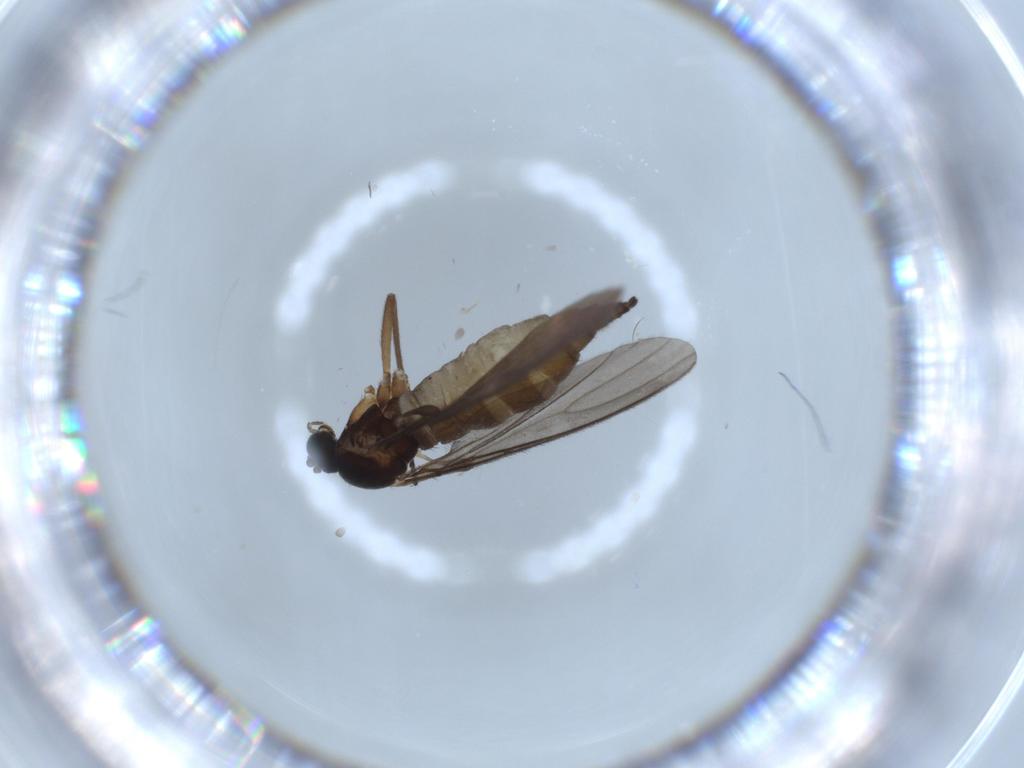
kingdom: Animalia
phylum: Arthropoda
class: Insecta
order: Diptera
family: Sciaridae
